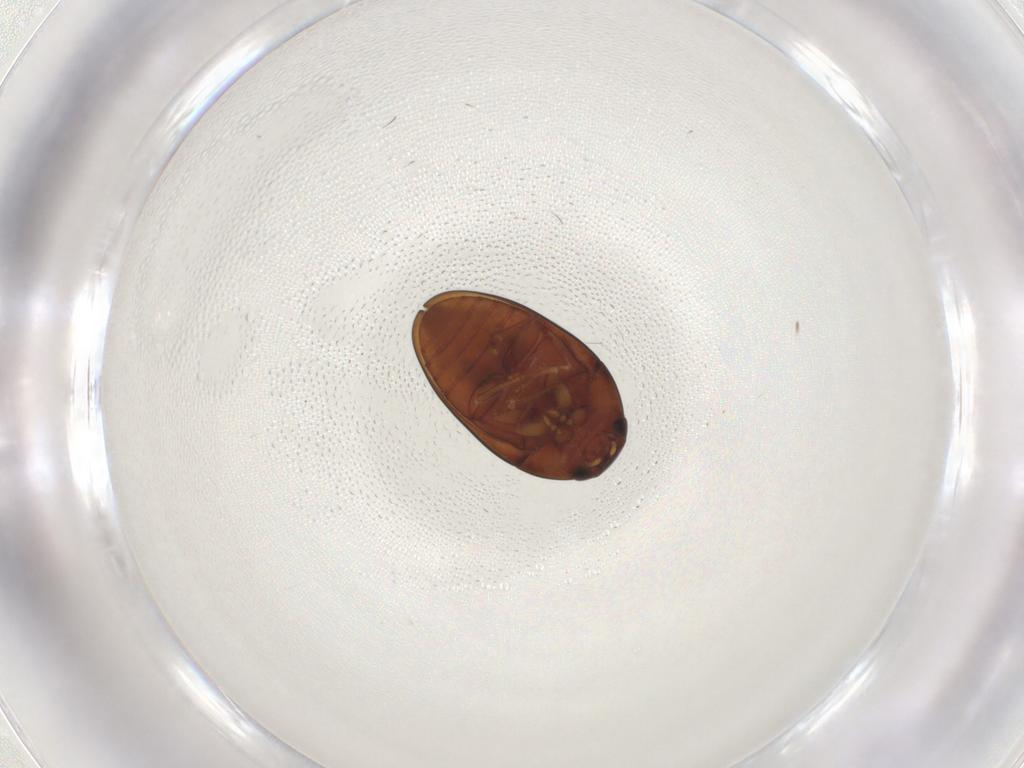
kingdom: Animalia
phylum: Arthropoda
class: Insecta
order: Coleoptera
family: Phalacridae
